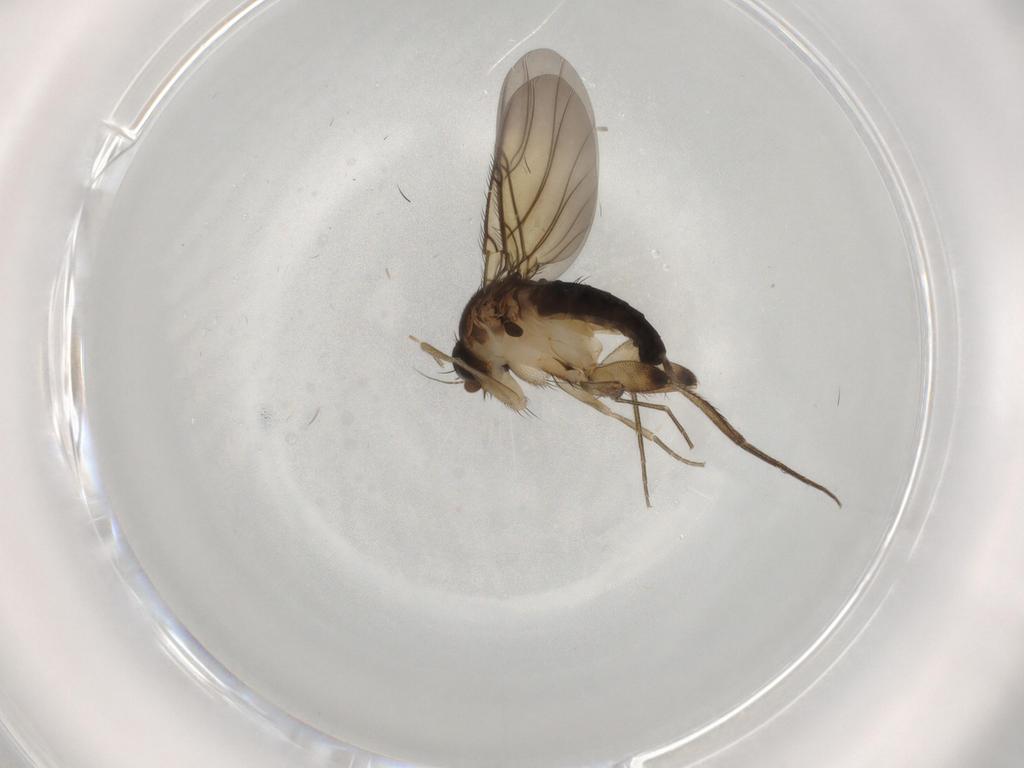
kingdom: Animalia
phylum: Arthropoda
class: Insecta
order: Diptera
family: Phoridae
